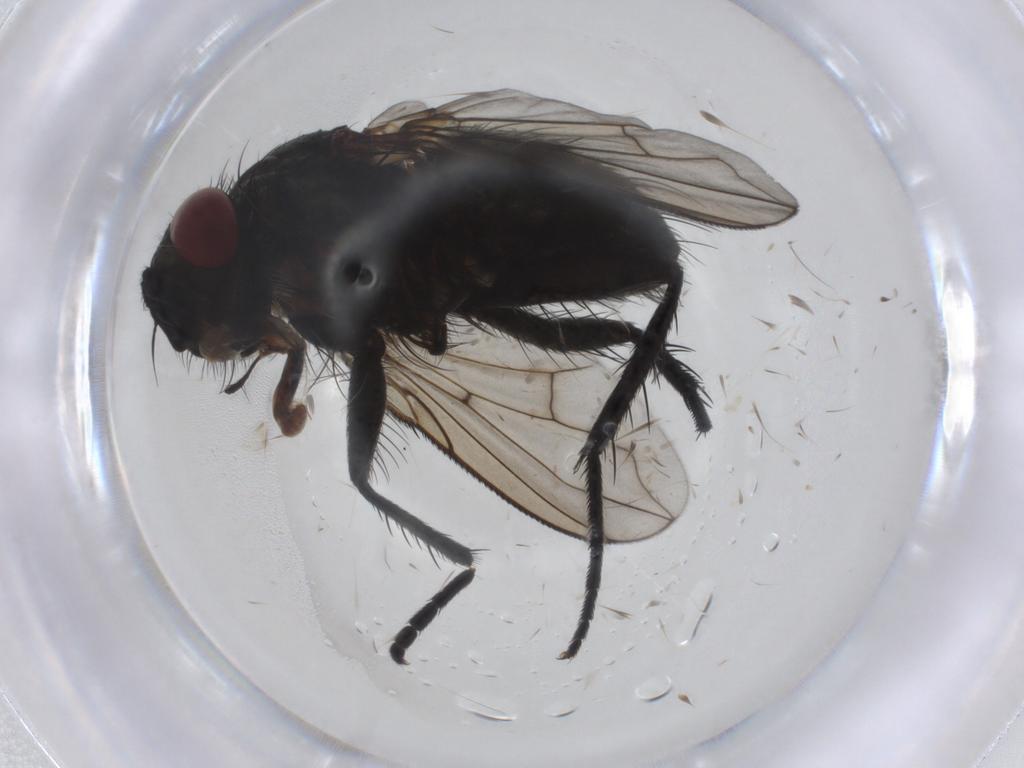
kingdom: Animalia
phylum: Arthropoda
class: Insecta
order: Diptera
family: Tachinidae
